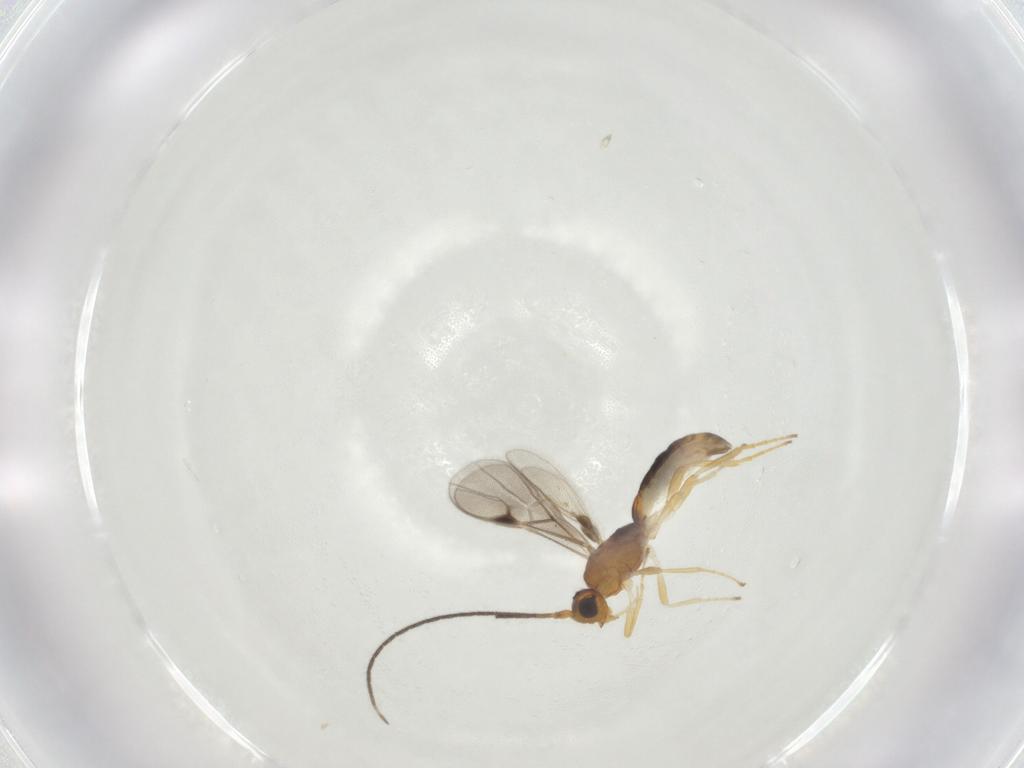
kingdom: Animalia
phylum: Arthropoda
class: Insecta
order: Hymenoptera
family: Braconidae
